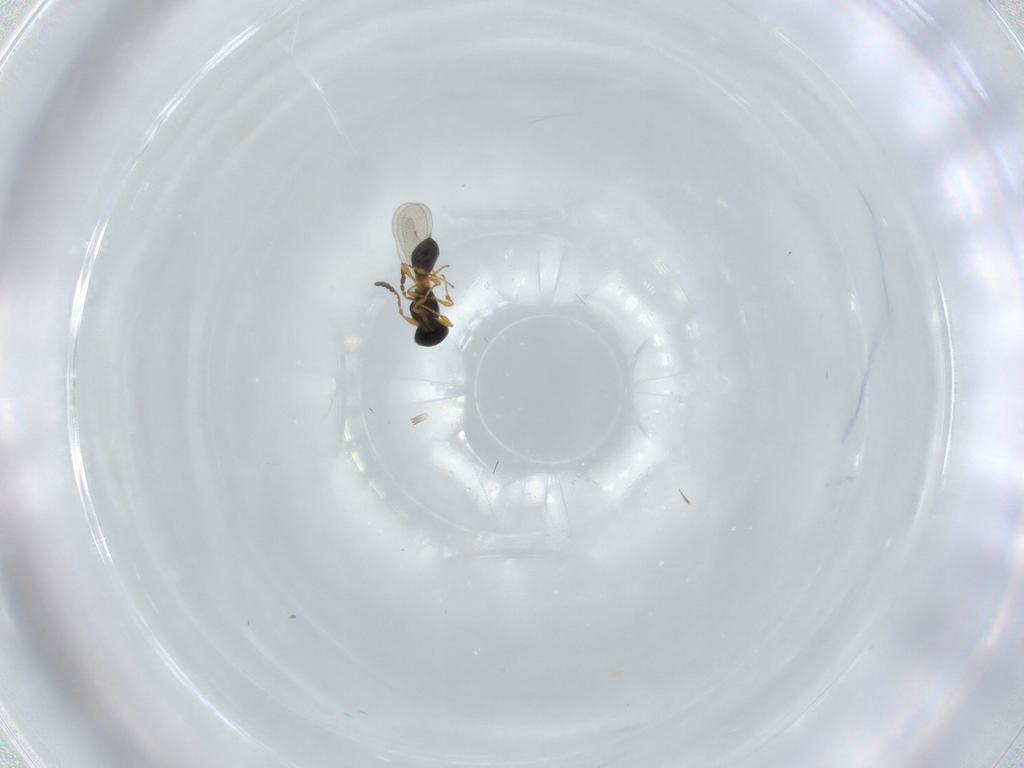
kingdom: Animalia
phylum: Arthropoda
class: Insecta
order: Hymenoptera
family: Platygastridae
